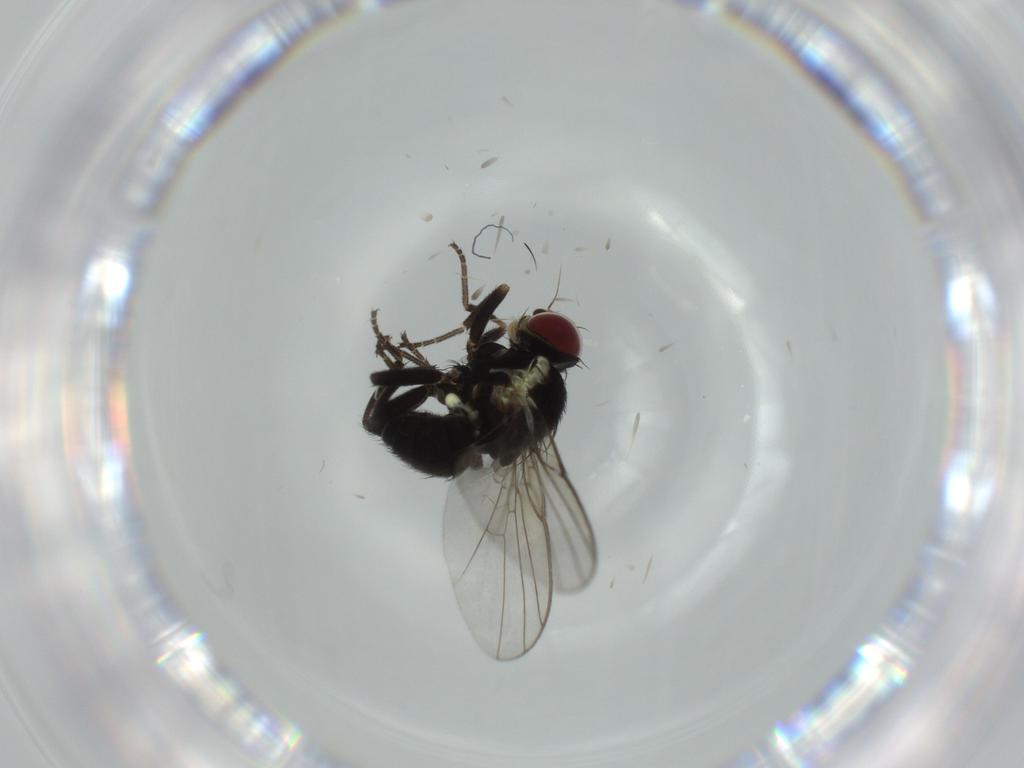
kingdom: Animalia
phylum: Arthropoda
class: Insecta
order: Diptera
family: Agromyzidae
